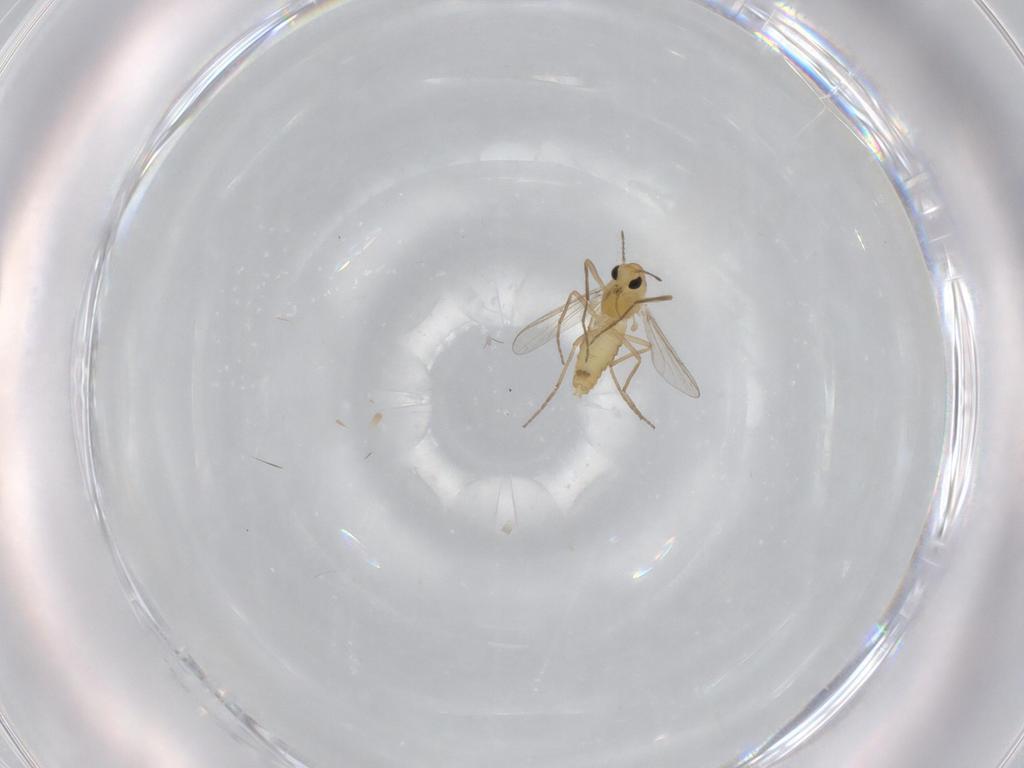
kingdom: Animalia
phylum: Arthropoda
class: Insecta
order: Diptera
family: Chironomidae
